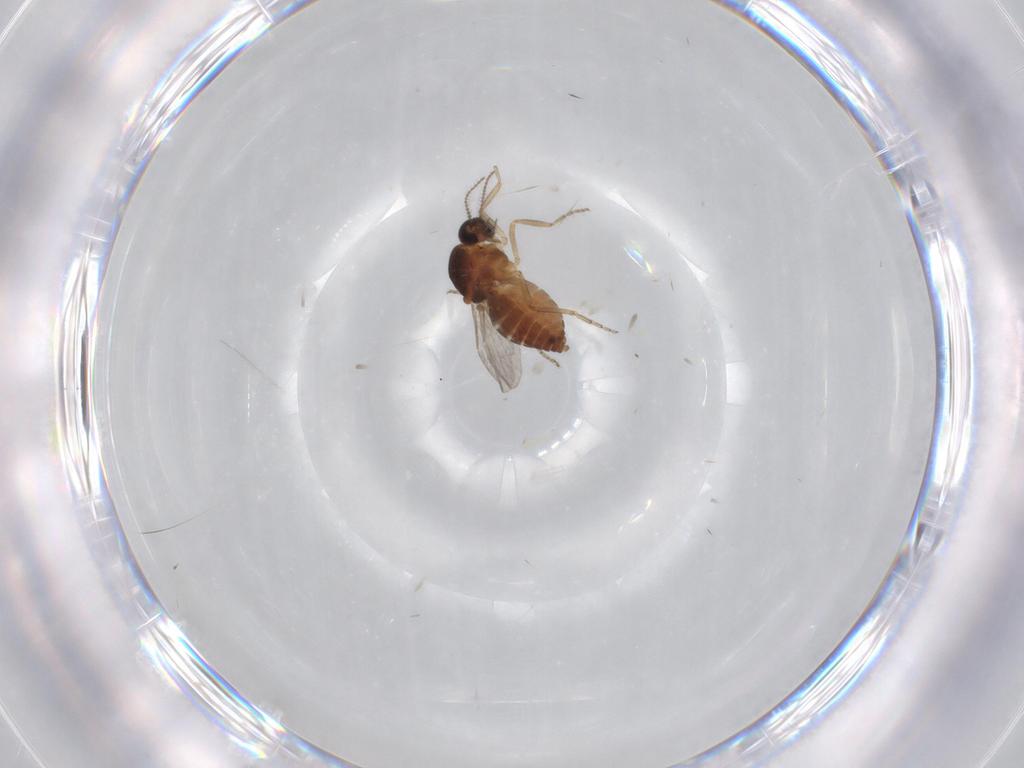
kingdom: Animalia
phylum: Arthropoda
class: Insecta
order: Diptera
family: Ceratopogonidae
